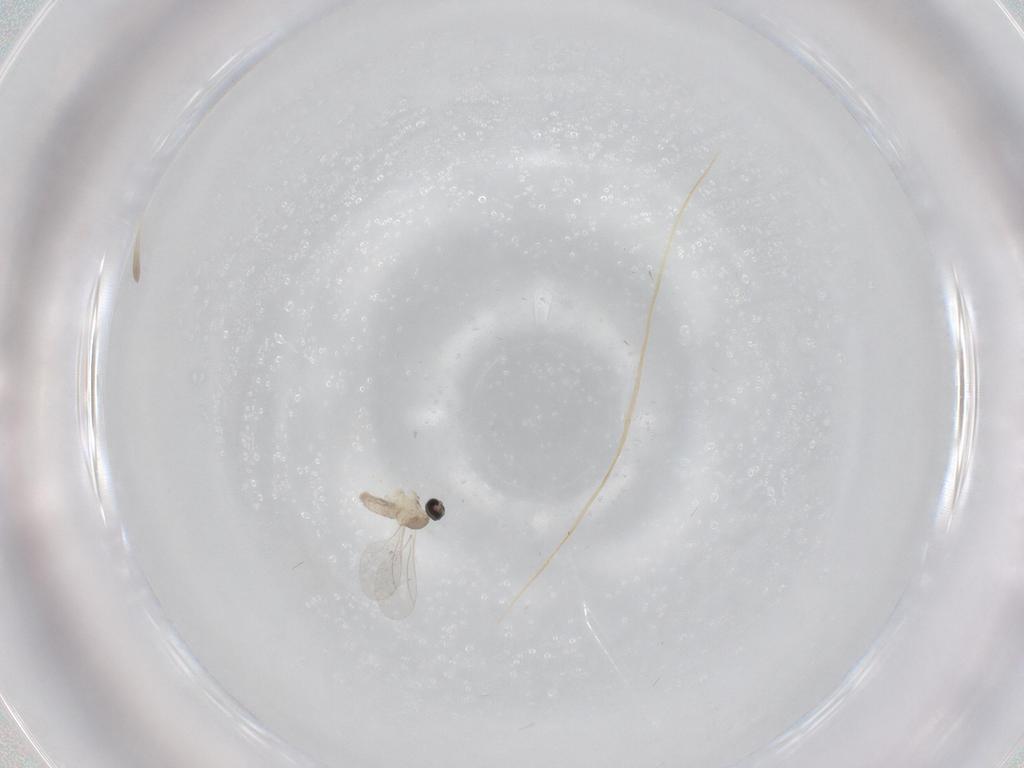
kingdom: Animalia
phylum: Arthropoda
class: Insecta
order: Diptera
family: Cecidomyiidae
